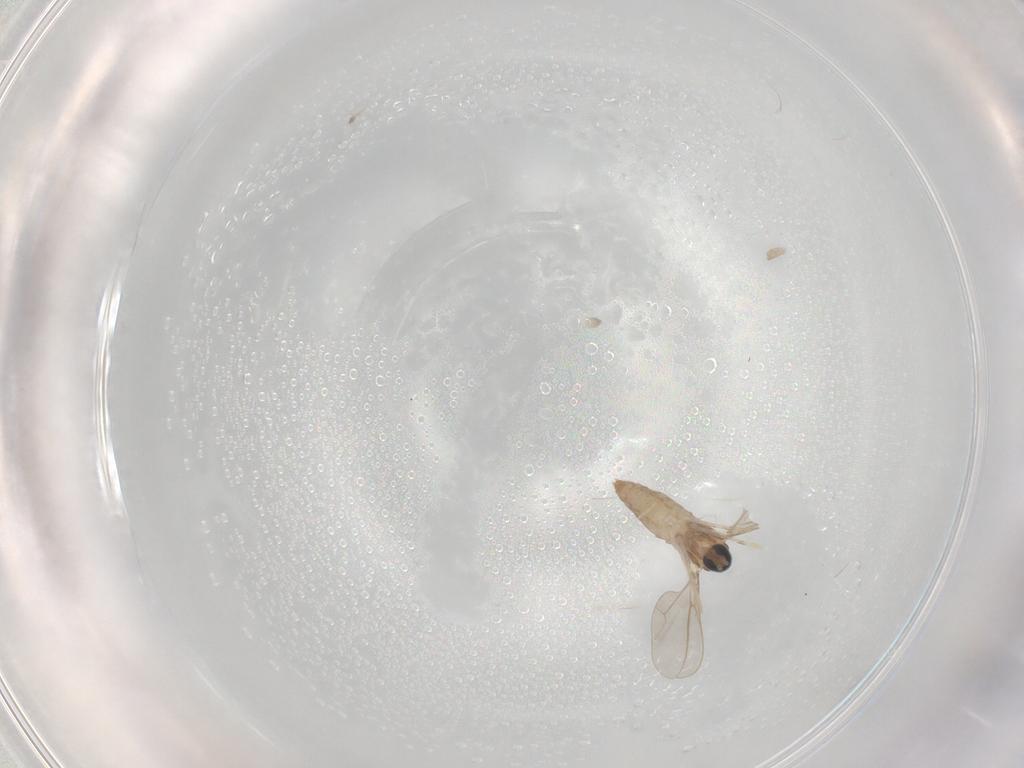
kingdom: Animalia
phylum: Arthropoda
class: Insecta
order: Diptera
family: Cecidomyiidae
